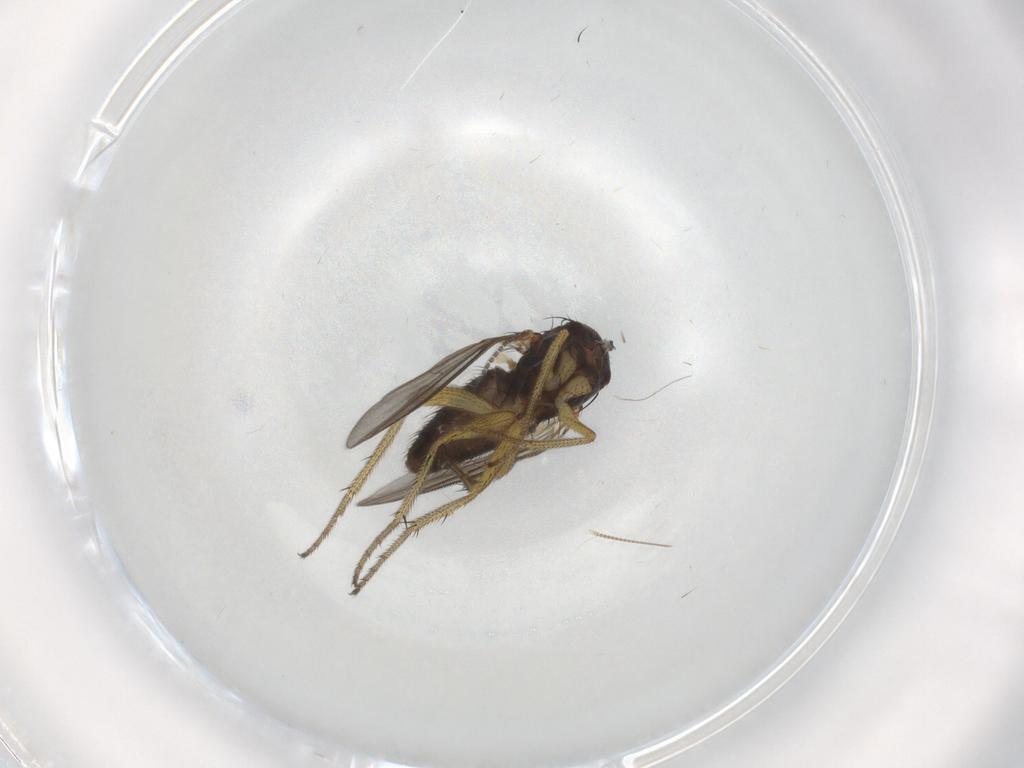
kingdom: Animalia
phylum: Arthropoda
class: Insecta
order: Diptera
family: Sciaridae
